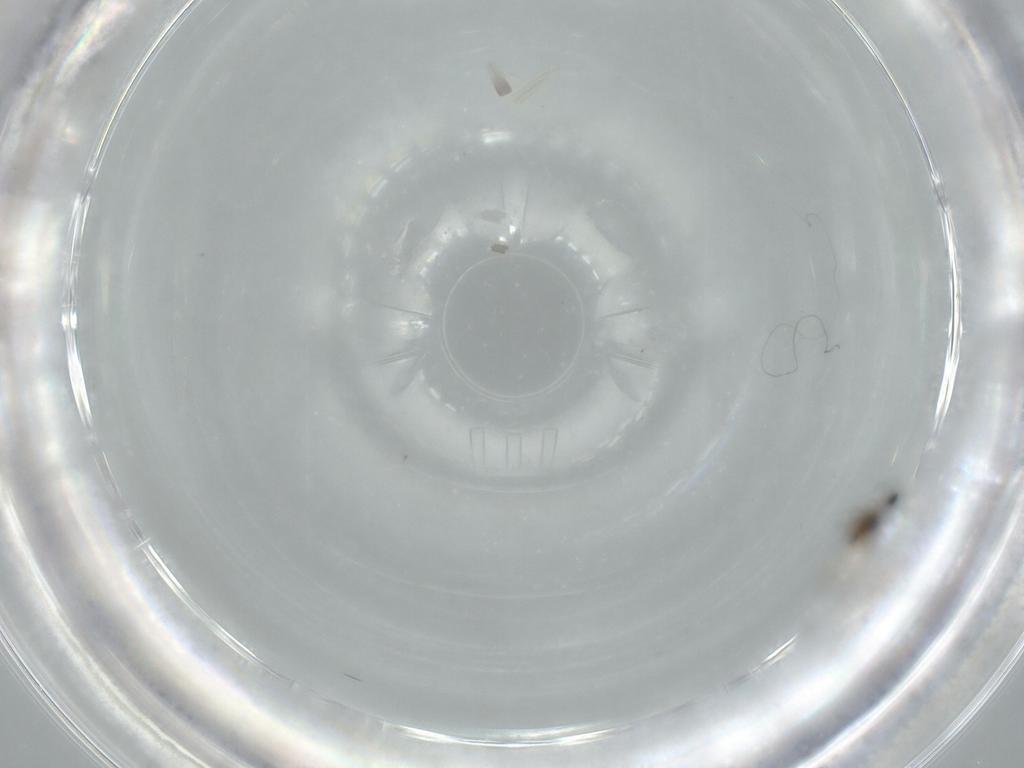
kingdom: Animalia
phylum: Arthropoda
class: Insecta
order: Diptera
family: Cecidomyiidae
